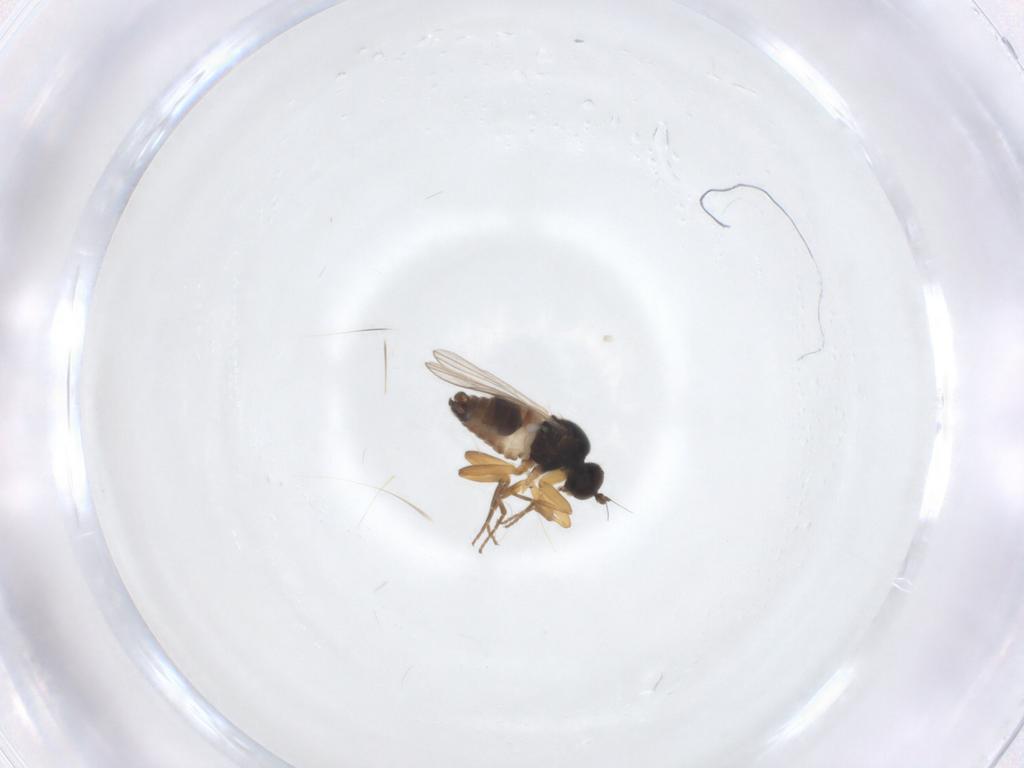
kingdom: Animalia
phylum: Arthropoda
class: Insecta
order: Diptera
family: Hybotidae
